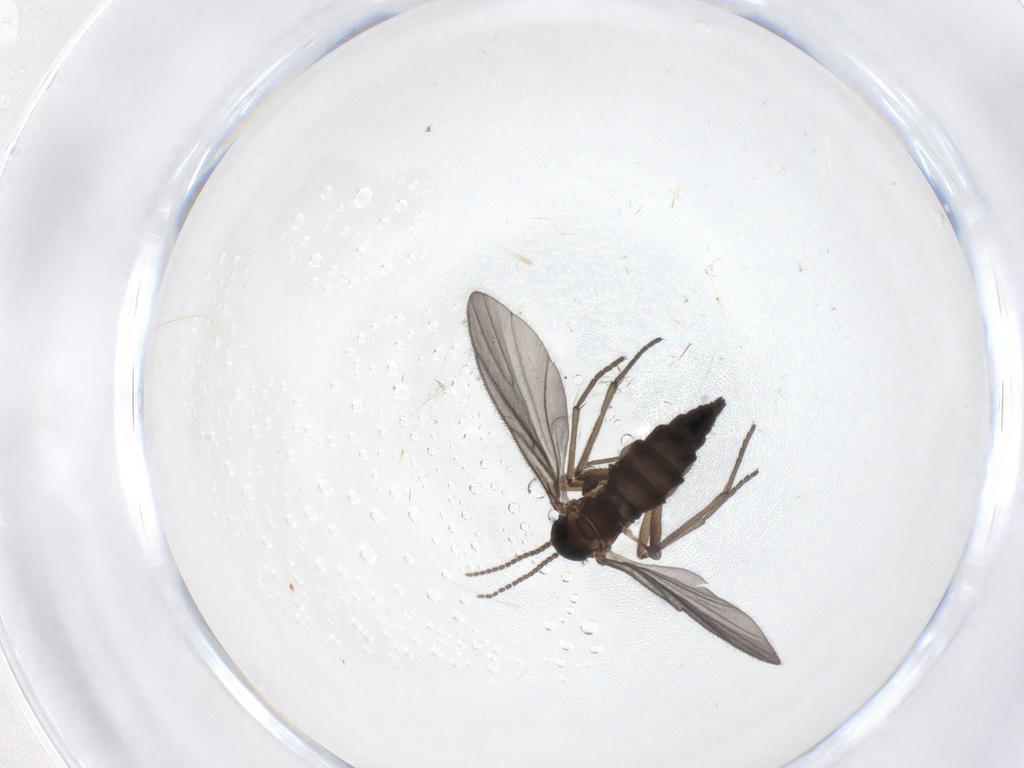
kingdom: Animalia
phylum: Arthropoda
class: Insecta
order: Diptera
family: Sciaridae
